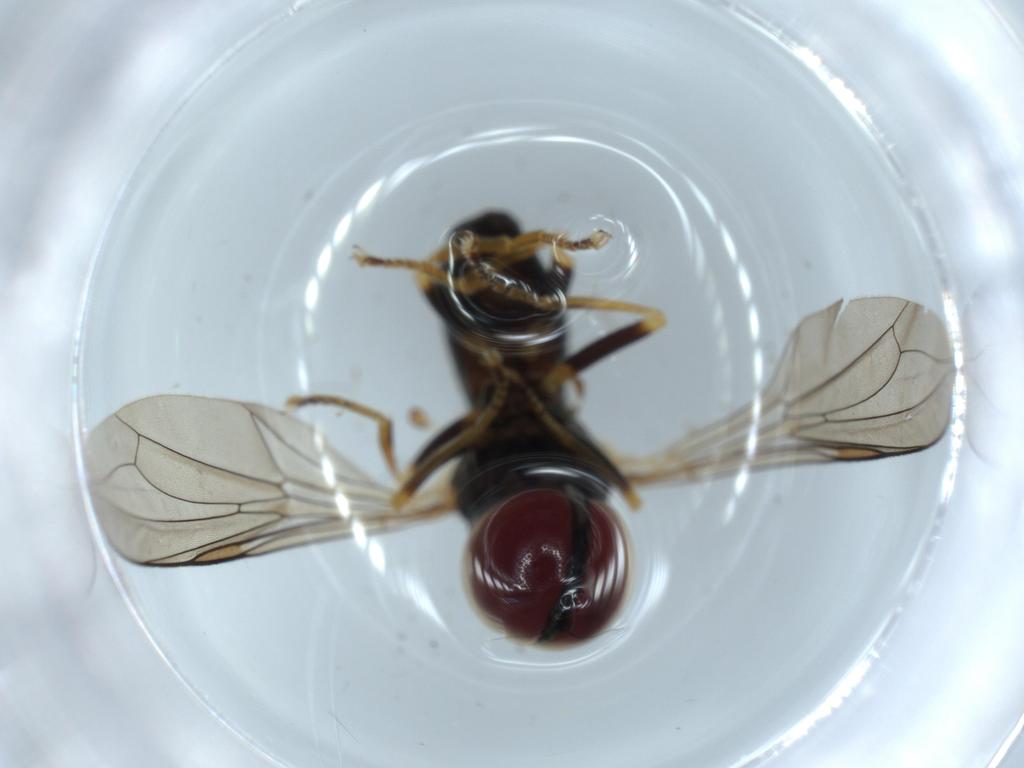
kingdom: Animalia
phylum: Arthropoda
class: Insecta
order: Diptera
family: Pipunculidae
